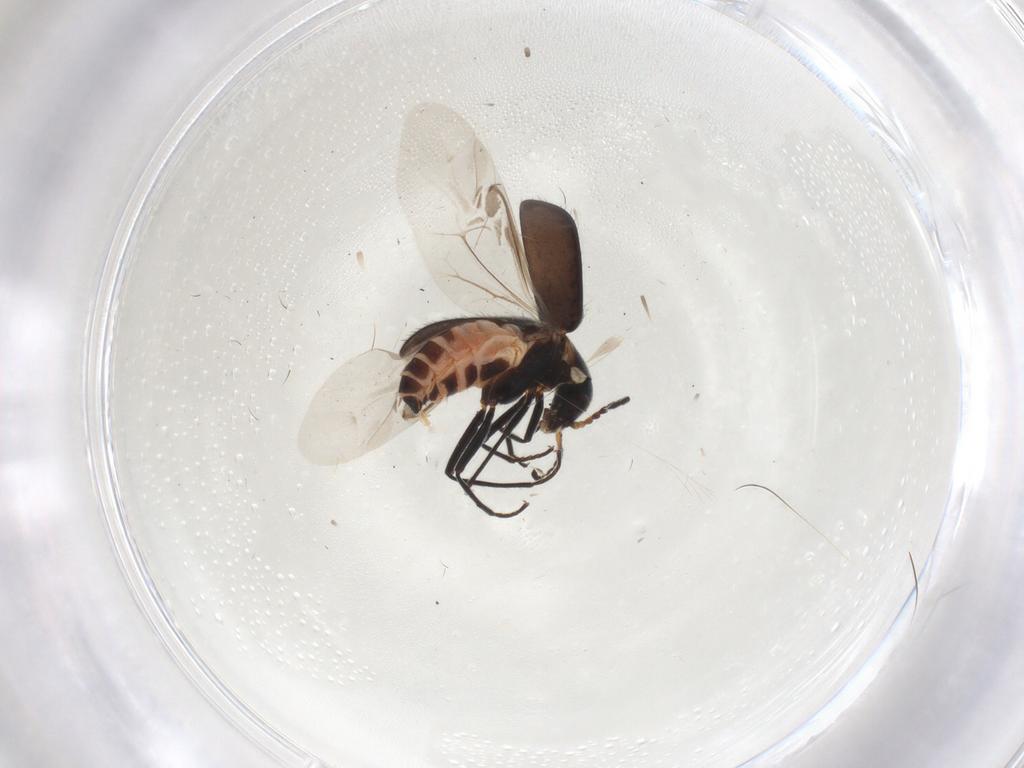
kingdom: Animalia
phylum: Arthropoda
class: Insecta
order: Coleoptera
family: Melyridae
